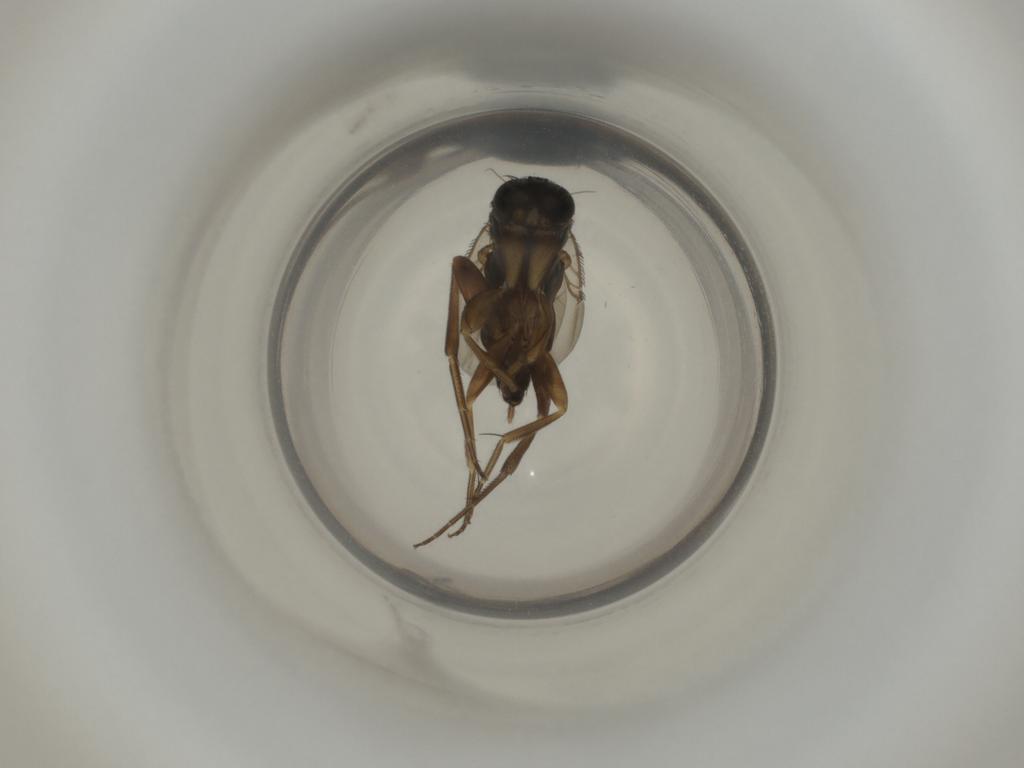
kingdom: Animalia
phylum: Arthropoda
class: Insecta
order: Diptera
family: Phoridae
